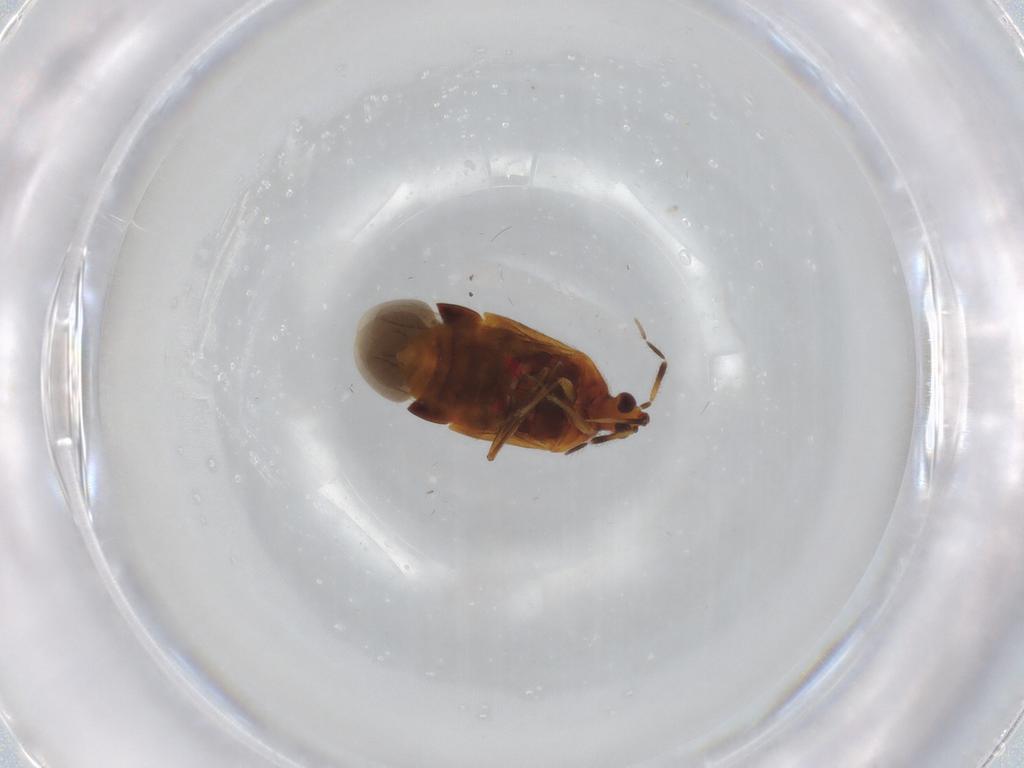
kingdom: Animalia
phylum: Arthropoda
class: Insecta
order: Hemiptera
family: Anthocoridae
